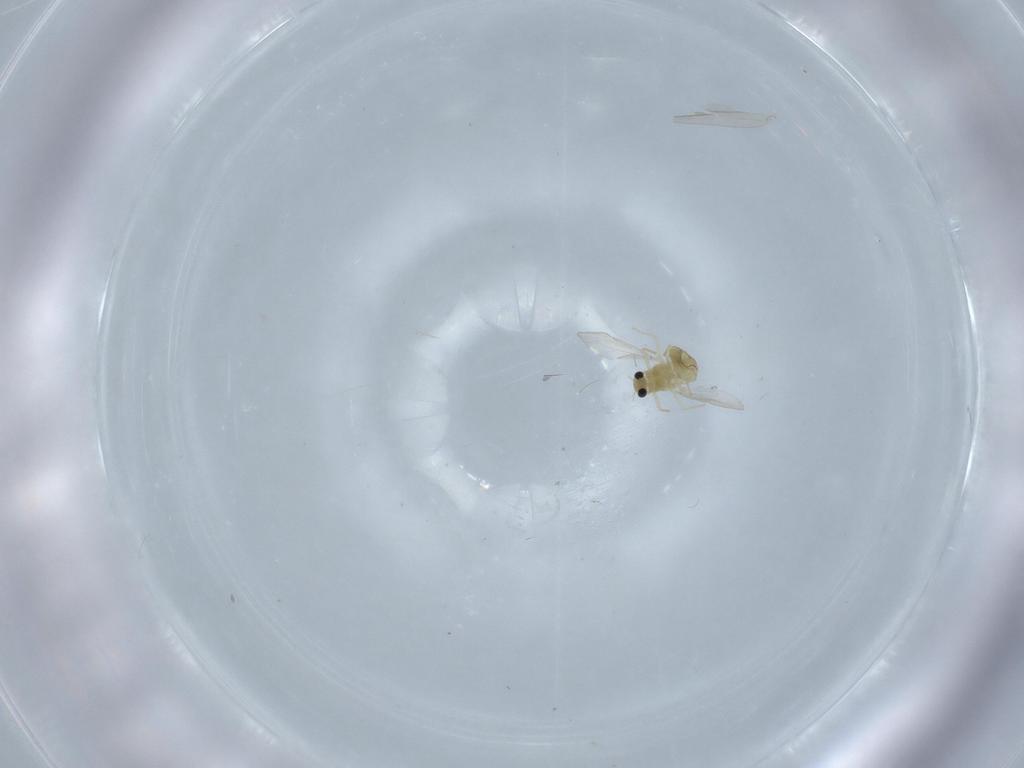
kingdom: Animalia
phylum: Arthropoda
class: Insecta
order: Diptera
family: Chironomidae
